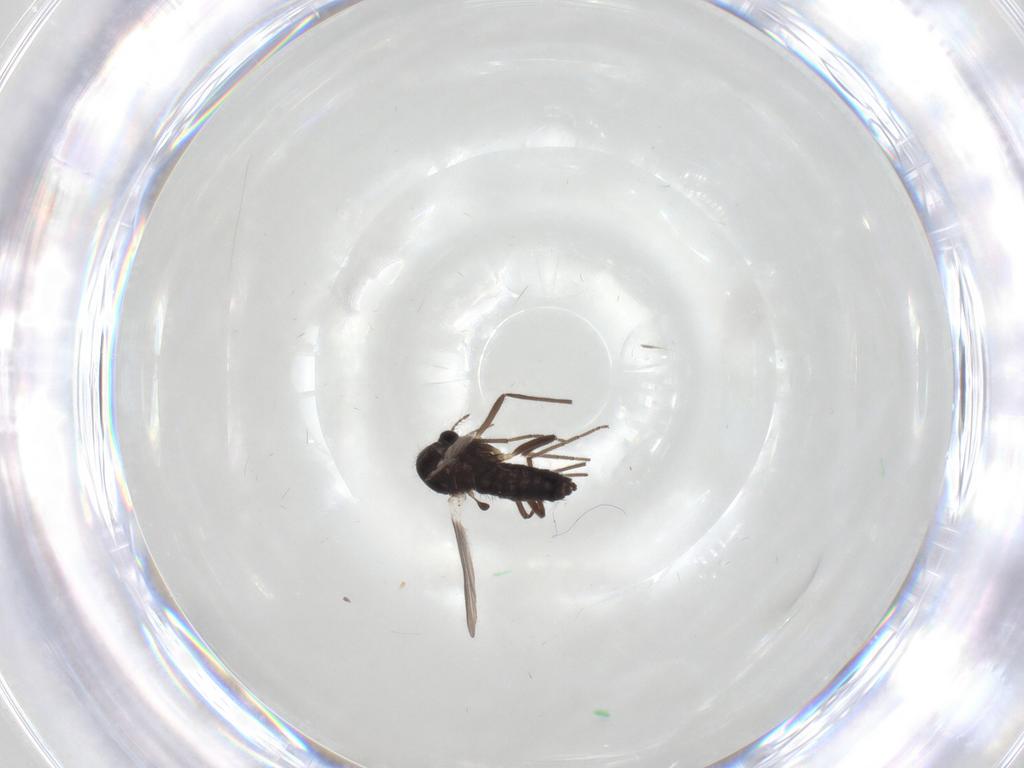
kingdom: Animalia
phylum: Arthropoda
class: Insecta
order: Diptera
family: Chironomidae
